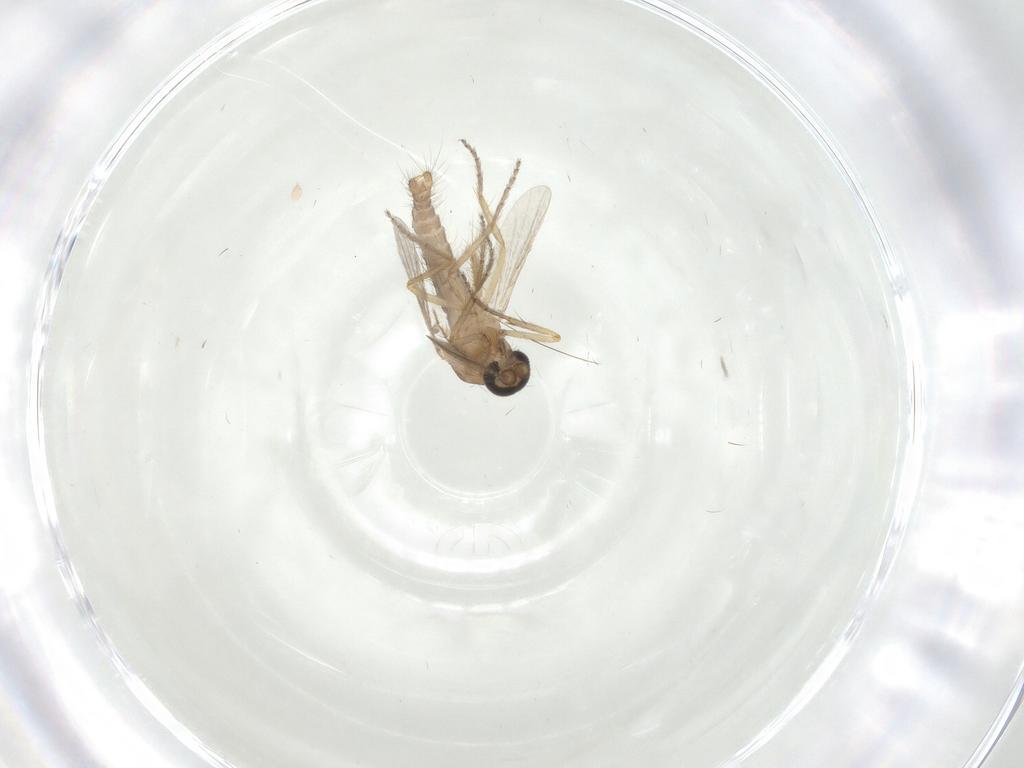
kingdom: Animalia
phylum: Arthropoda
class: Insecta
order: Diptera
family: Ceratopogonidae
